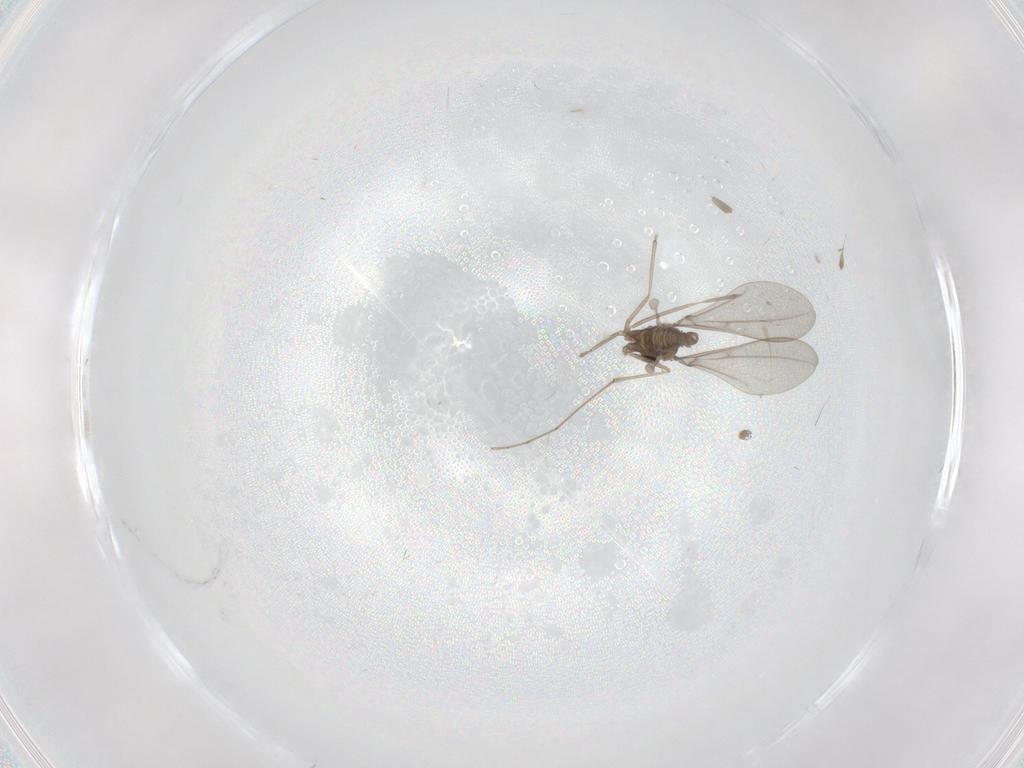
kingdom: Animalia
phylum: Arthropoda
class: Insecta
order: Diptera
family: Cecidomyiidae
